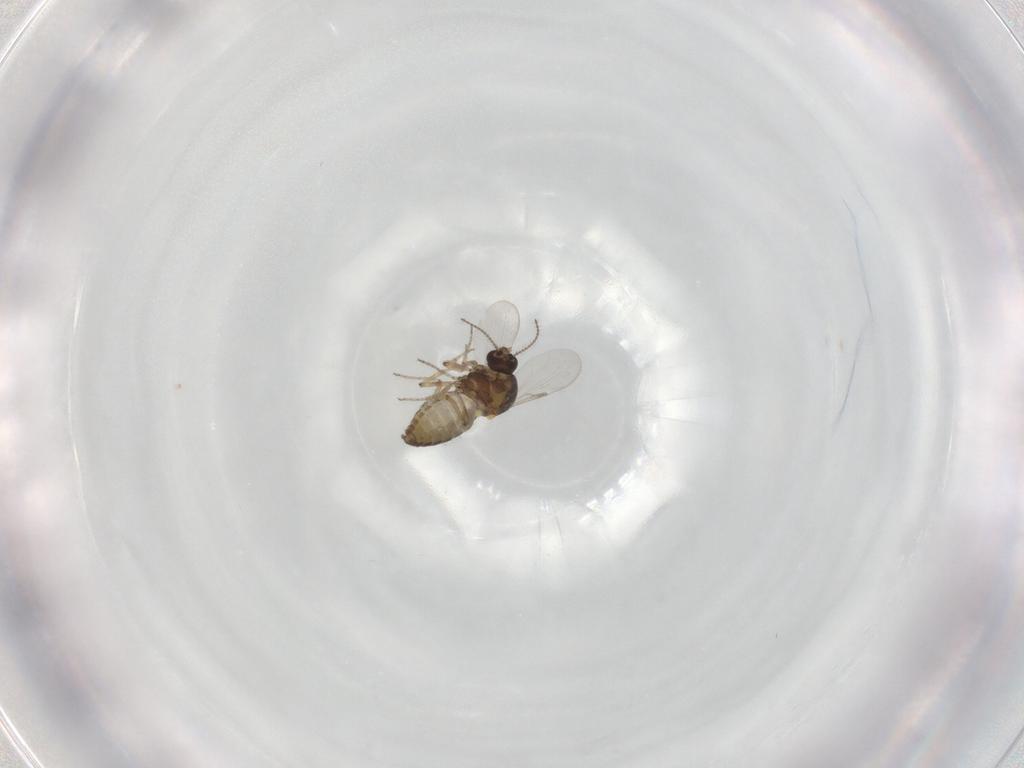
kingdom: Animalia
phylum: Arthropoda
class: Insecta
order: Diptera
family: Ceratopogonidae
